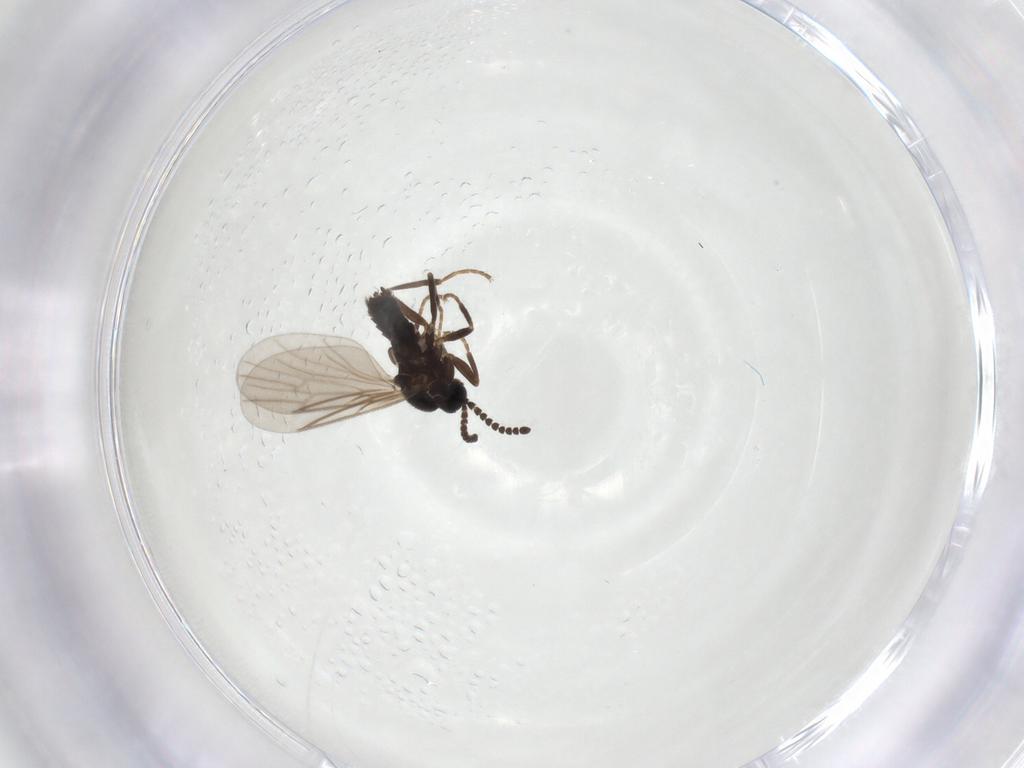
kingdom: Animalia
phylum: Arthropoda
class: Insecta
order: Diptera
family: Scatopsidae
